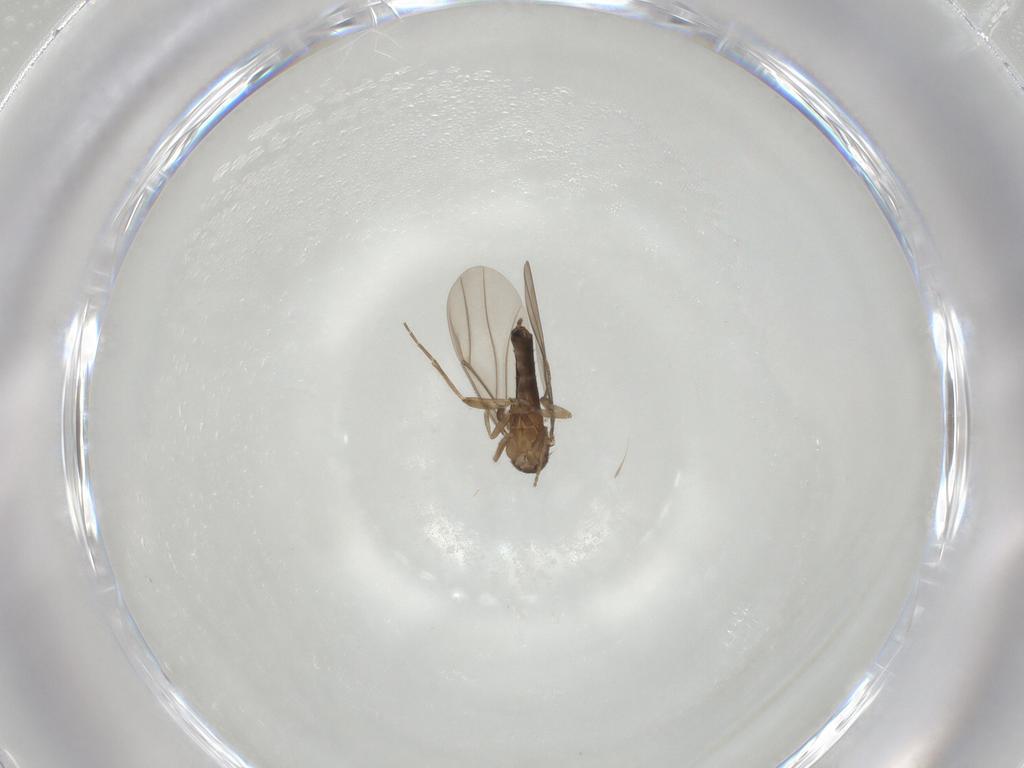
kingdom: Animalia
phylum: Arthropoda
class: Insecta
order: Diptera
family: Phoridae
